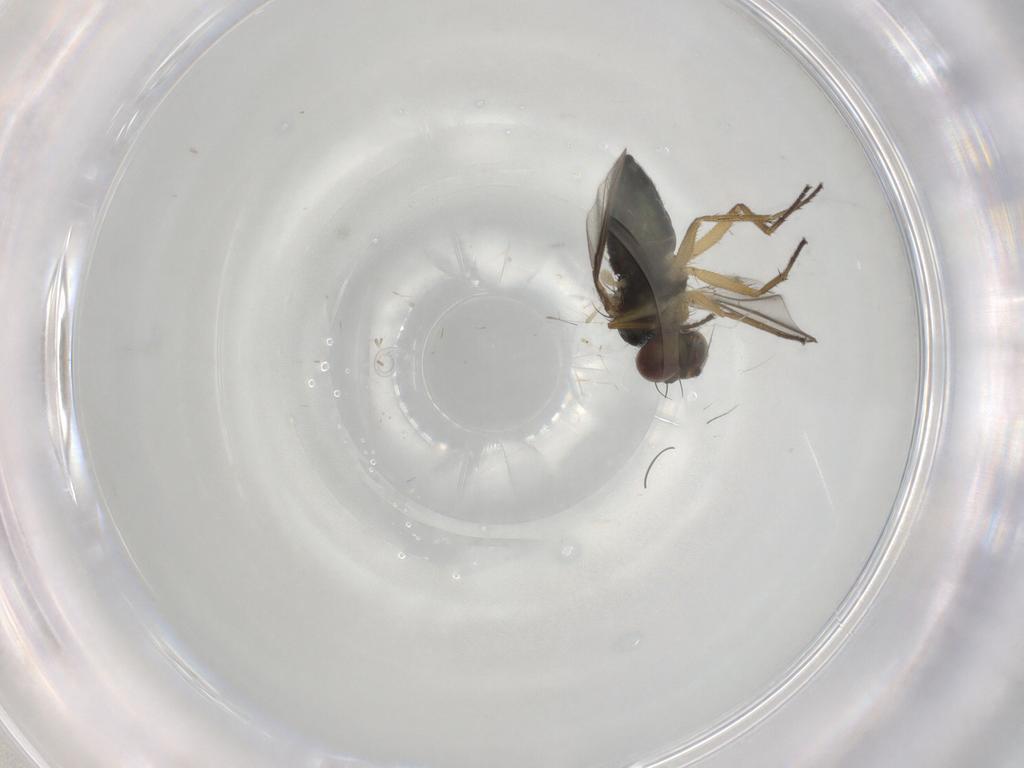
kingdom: Animalia
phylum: Arthropoda
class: Insecta
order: Diptera
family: Dolichopodidae
